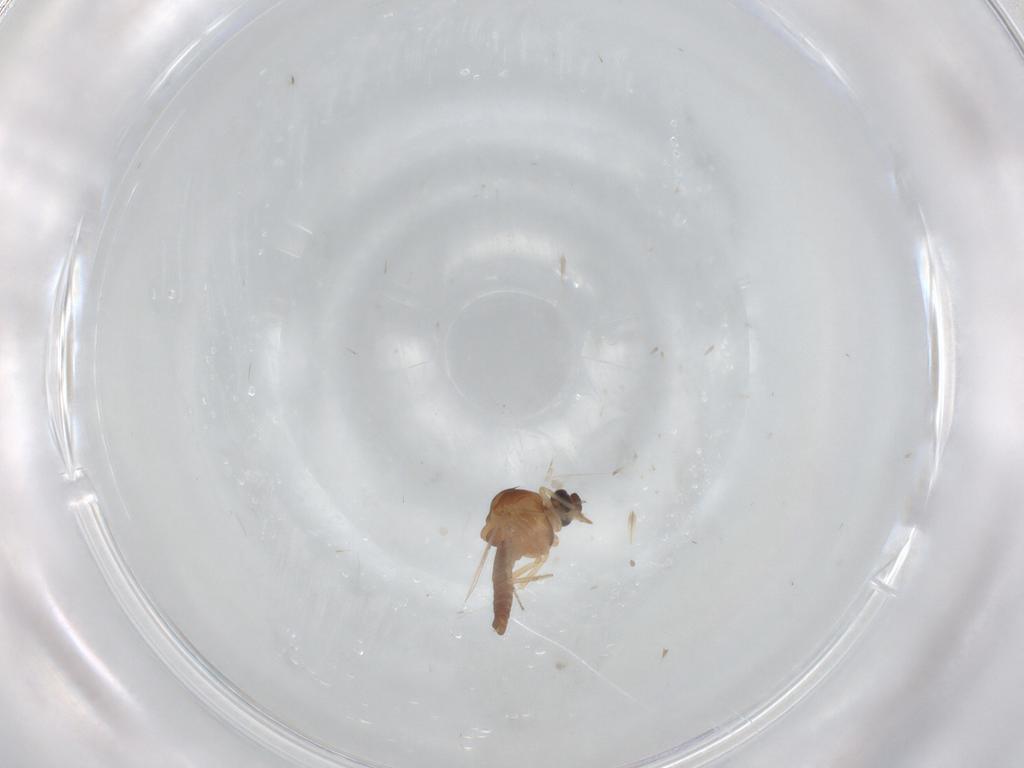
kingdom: Animalia
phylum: Arthropoda
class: Insecta
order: Diptera
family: Ceratopogonidae
